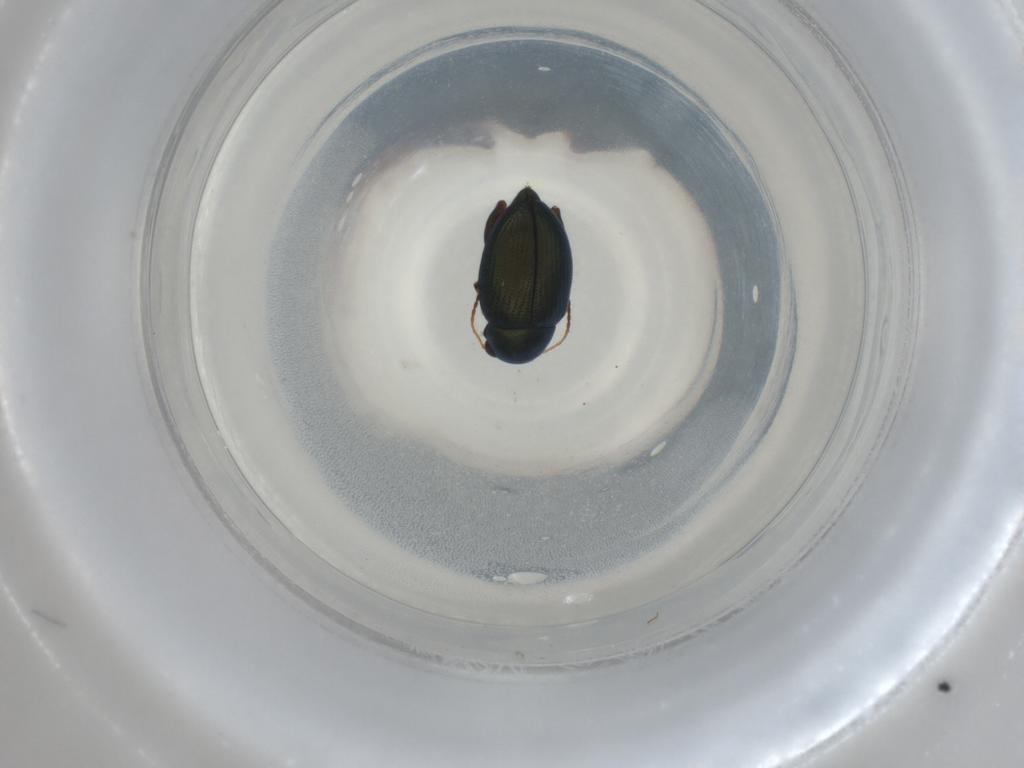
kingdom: Animalia
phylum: Arthropoda
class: Insecta
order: Coleoptera
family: Chrysomelidae
